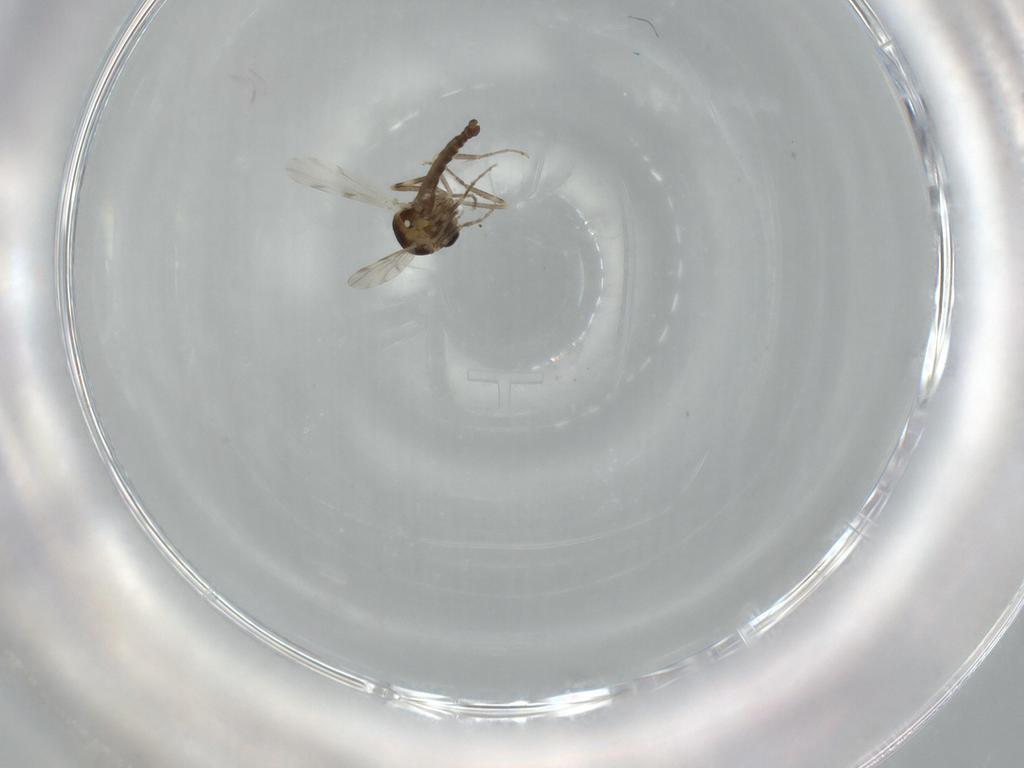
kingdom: Animalia
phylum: Arthropoda
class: Insecta
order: Diptera
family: Ceratopogonidae
